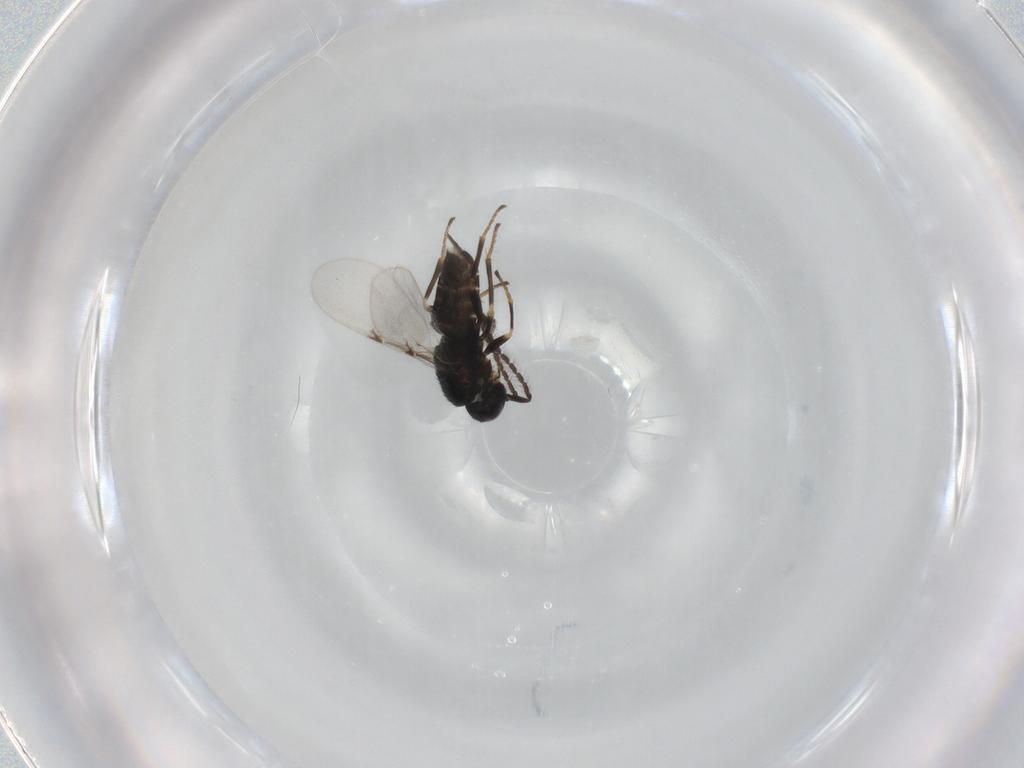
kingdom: Animalia
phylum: Arthropoda
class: Insecta
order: Hymenoptera
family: Encyrtidae
